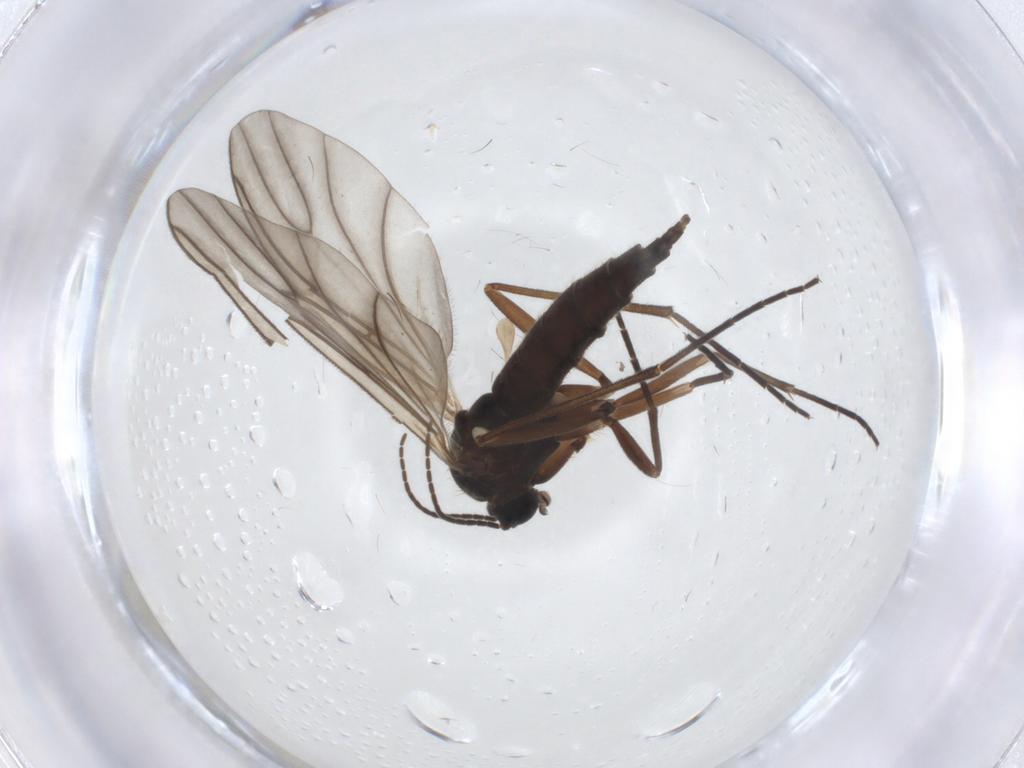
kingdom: Animalia
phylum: Arthropoda
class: Insecta
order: Diptera
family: Sciaridae
